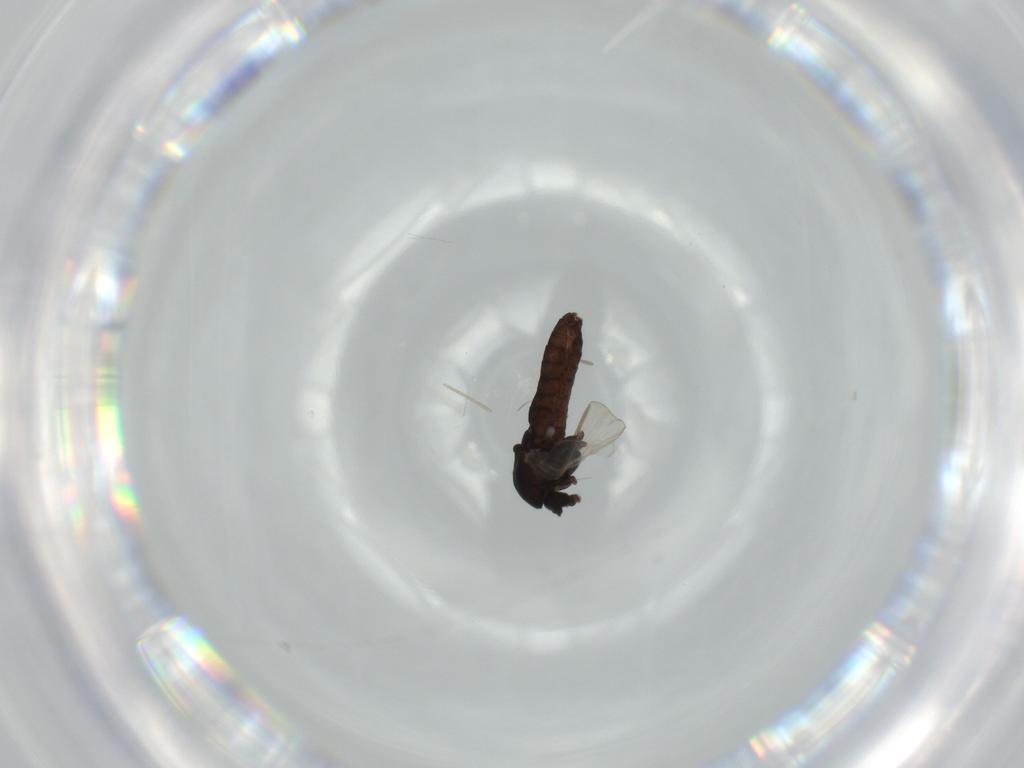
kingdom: Animalia
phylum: Arthropoda
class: Insecta
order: Diptera
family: Chironomidae
